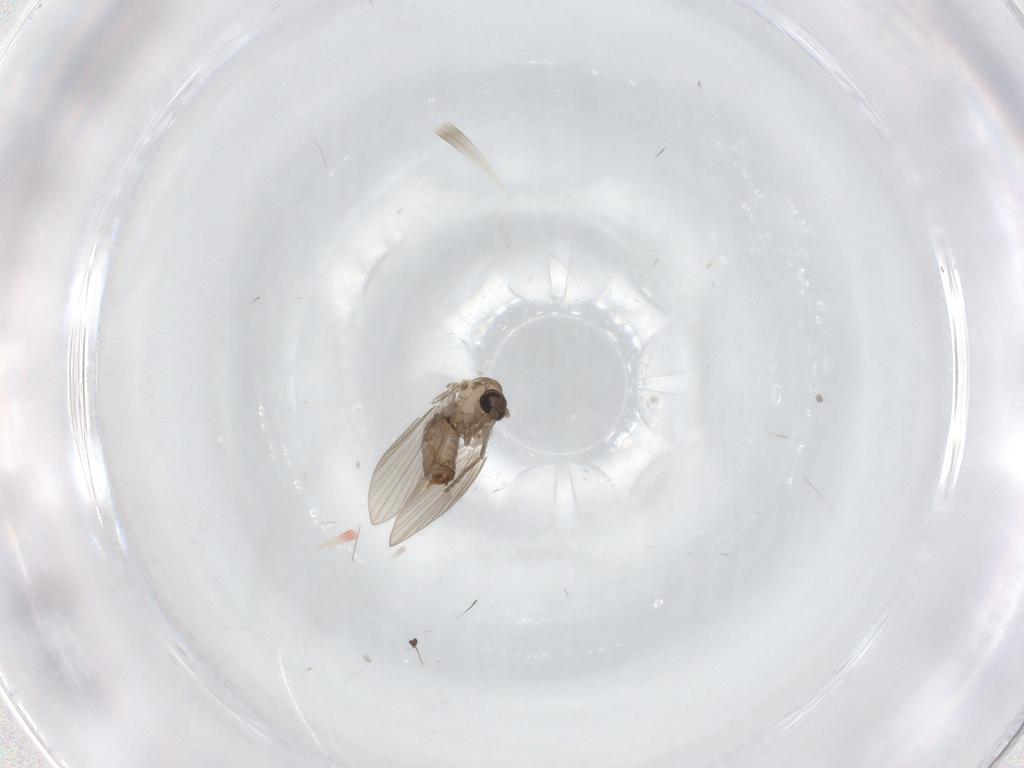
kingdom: Animalia
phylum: Arthropoda
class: Insecta
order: Diptera
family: Psychodidae
